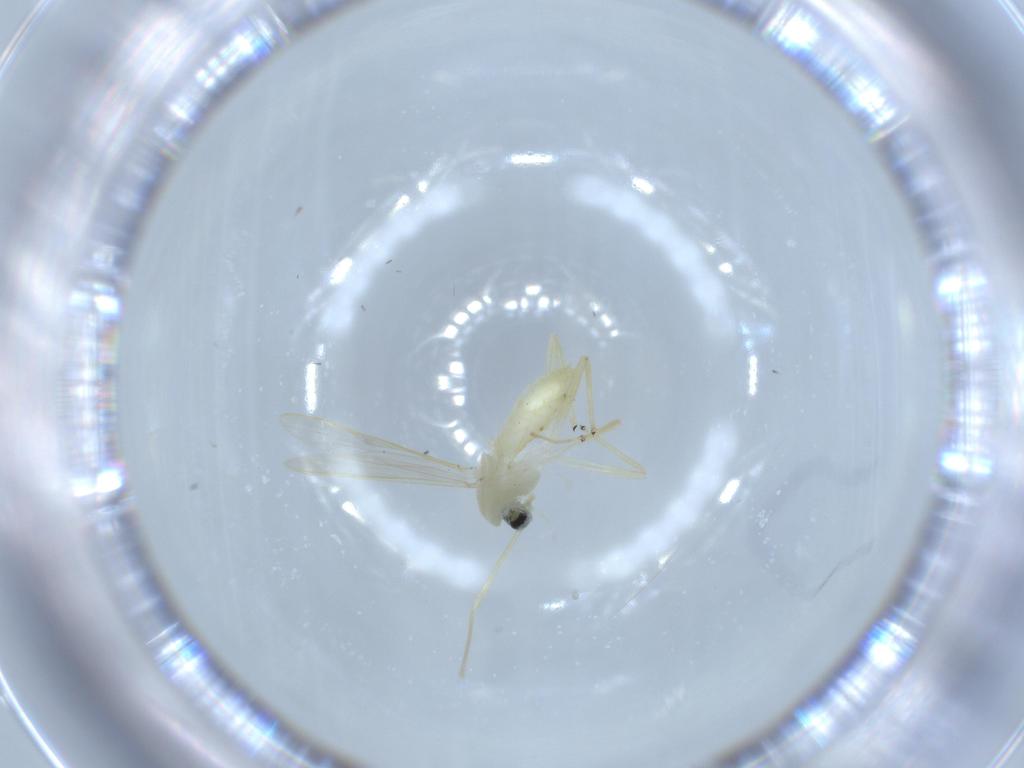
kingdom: Animalia
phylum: Arthropoda
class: Insecta
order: Diptera
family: Chironomidae
